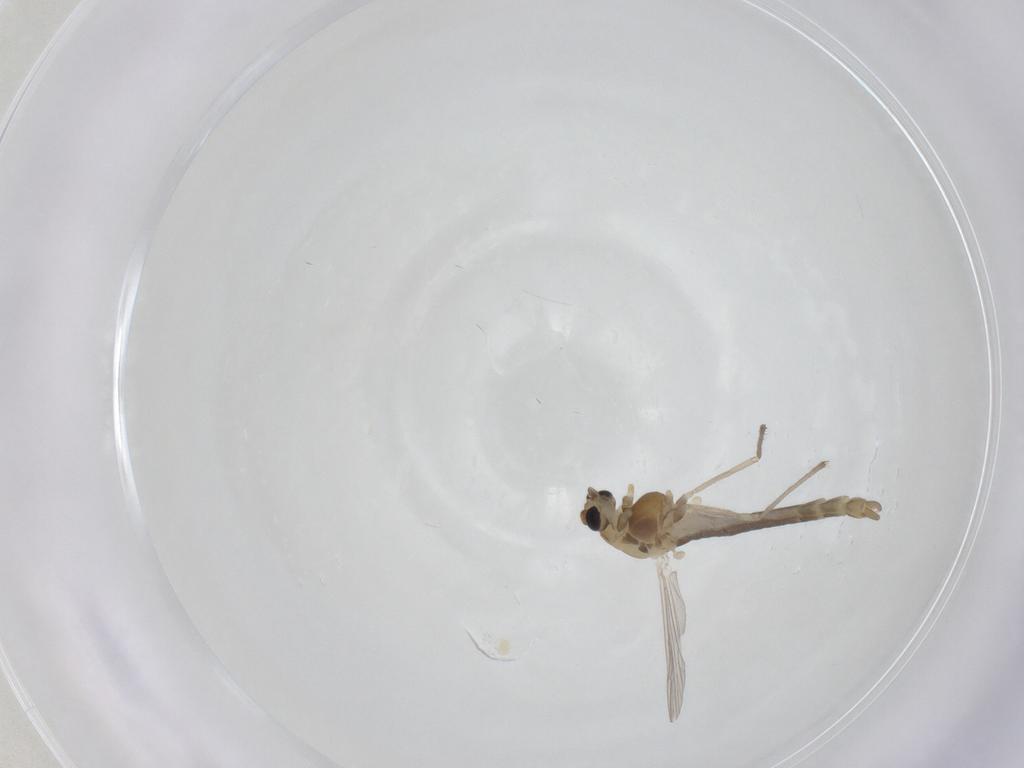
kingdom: Animalia
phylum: Arthropoda
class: Insecta
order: Diptera
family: Chironomidae
